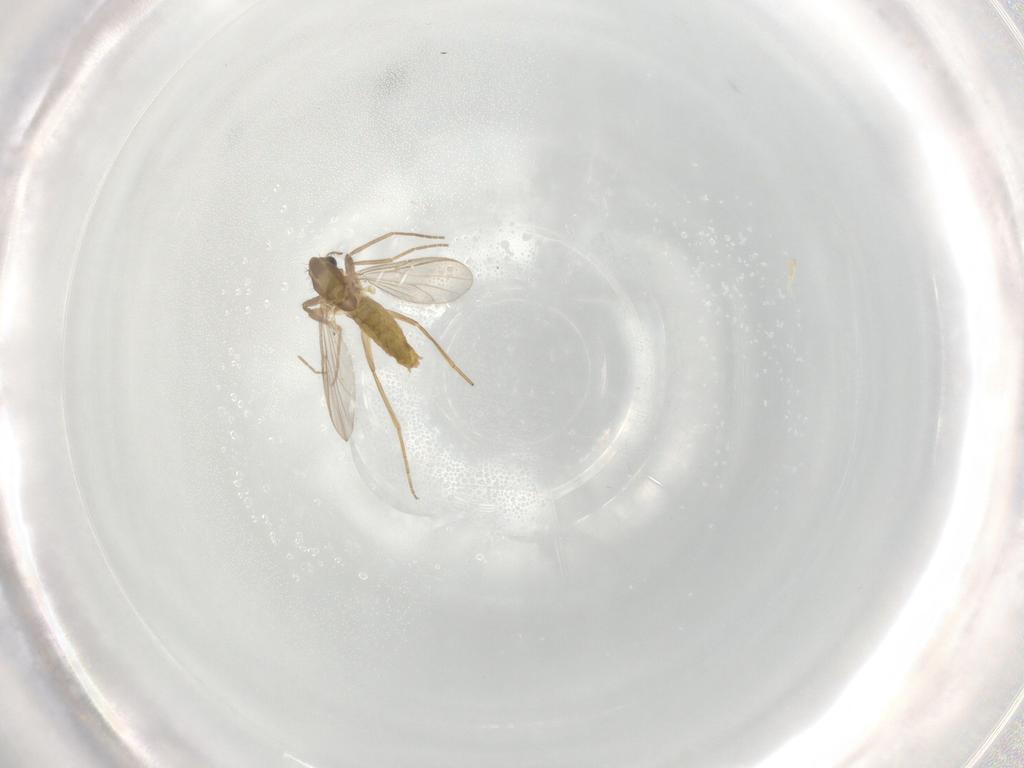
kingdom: Animalia
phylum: Arthropoda
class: Insecta
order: Diptera
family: Chironomidae
